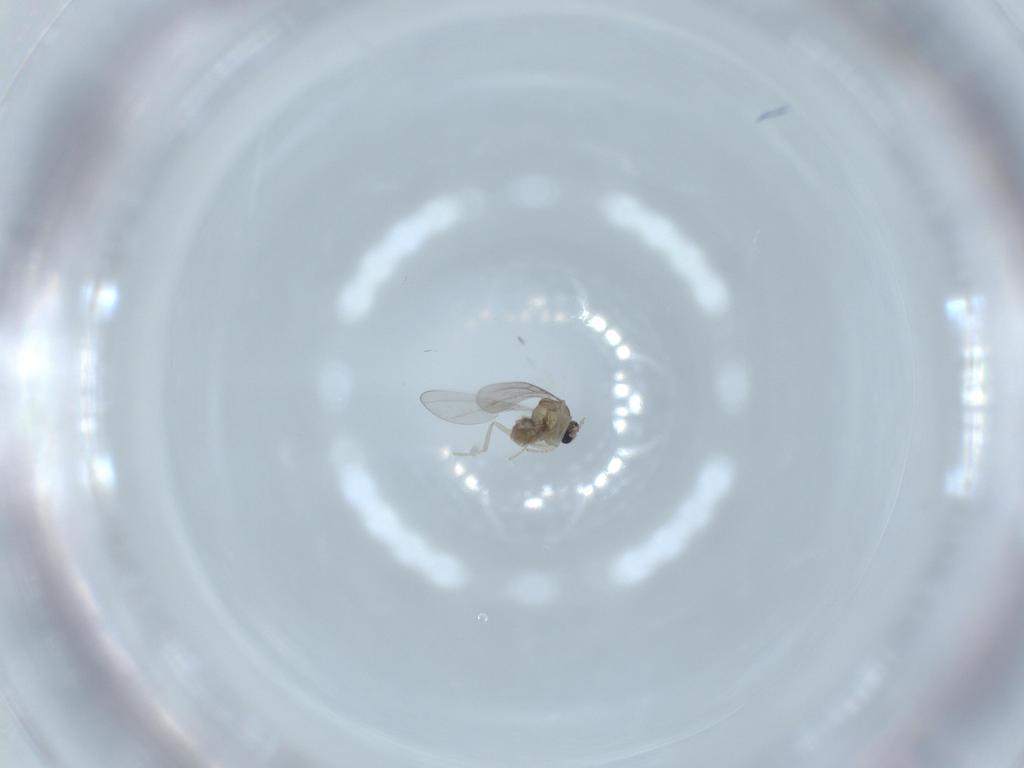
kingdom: Animalia
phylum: Arthropoda
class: Insecta
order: Diptera
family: Cecidomyiidae
